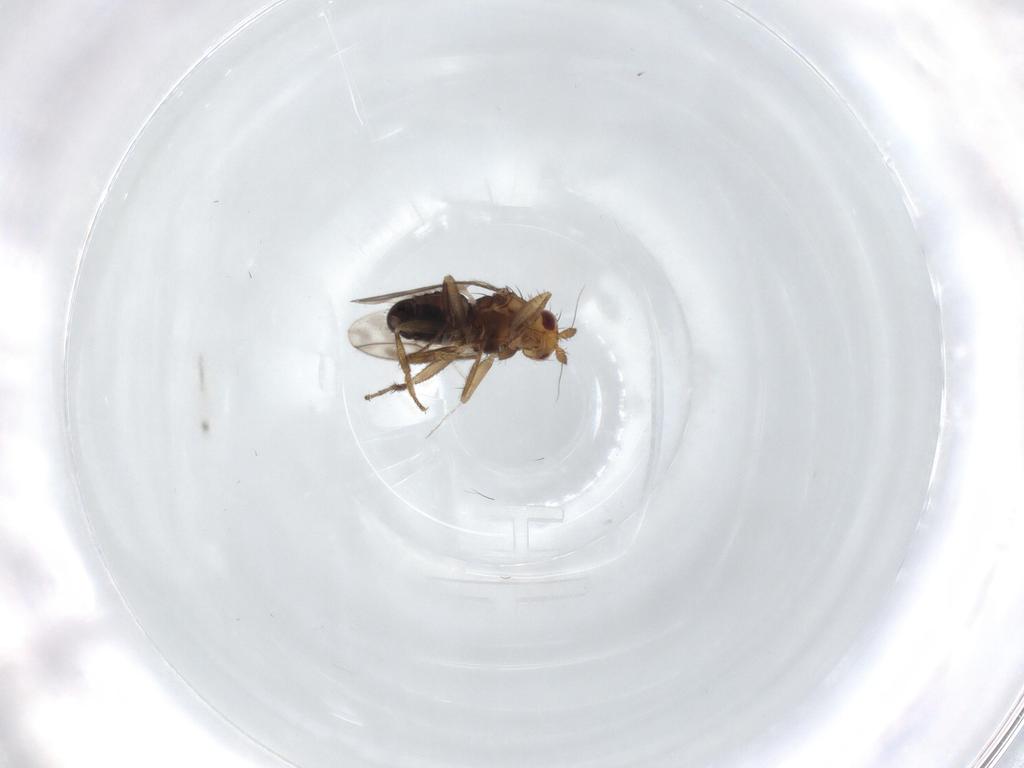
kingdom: Animalia
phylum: Arthropoda
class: Insecta
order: Diptera
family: Sphaeroceridae
